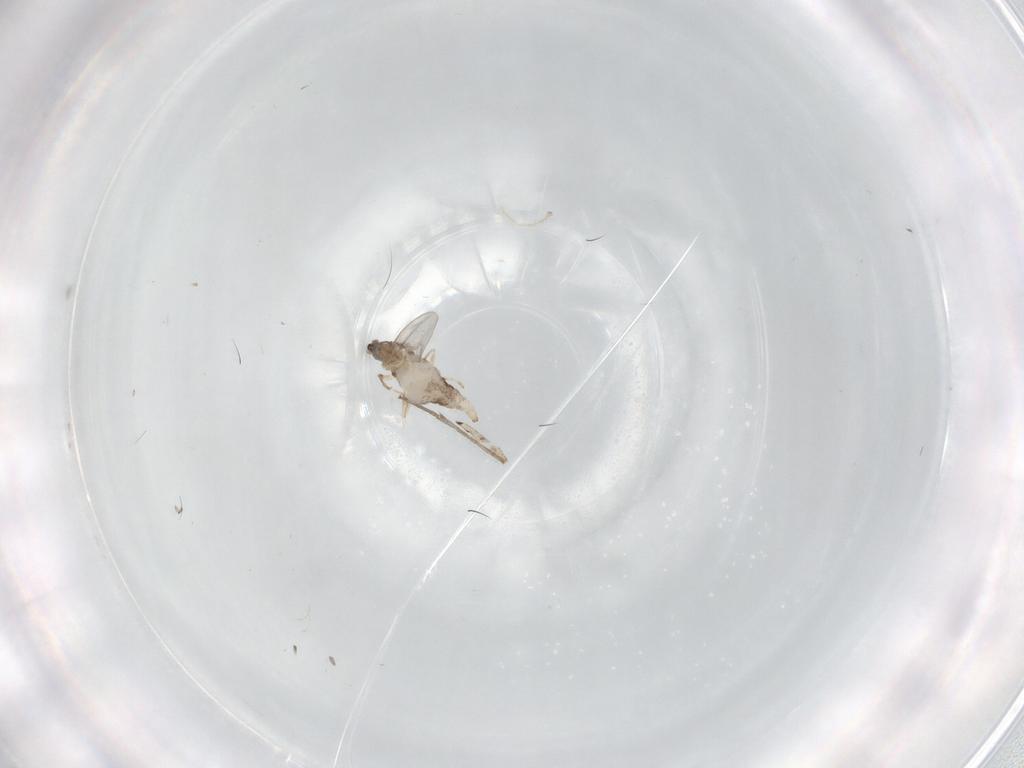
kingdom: Animalia
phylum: Arthropoda
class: Insecta
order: Diptera
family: Cecidomyiidae
